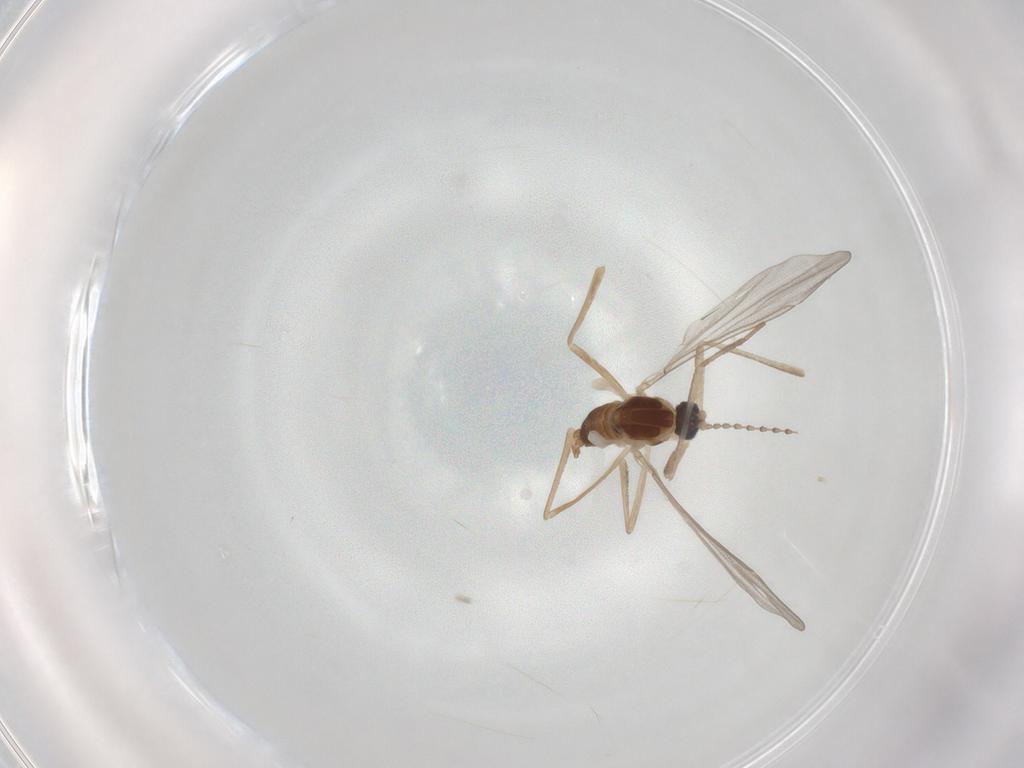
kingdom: Animalia
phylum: Arthropoda
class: Insecta
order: Diptera
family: Cecidomyiidae
